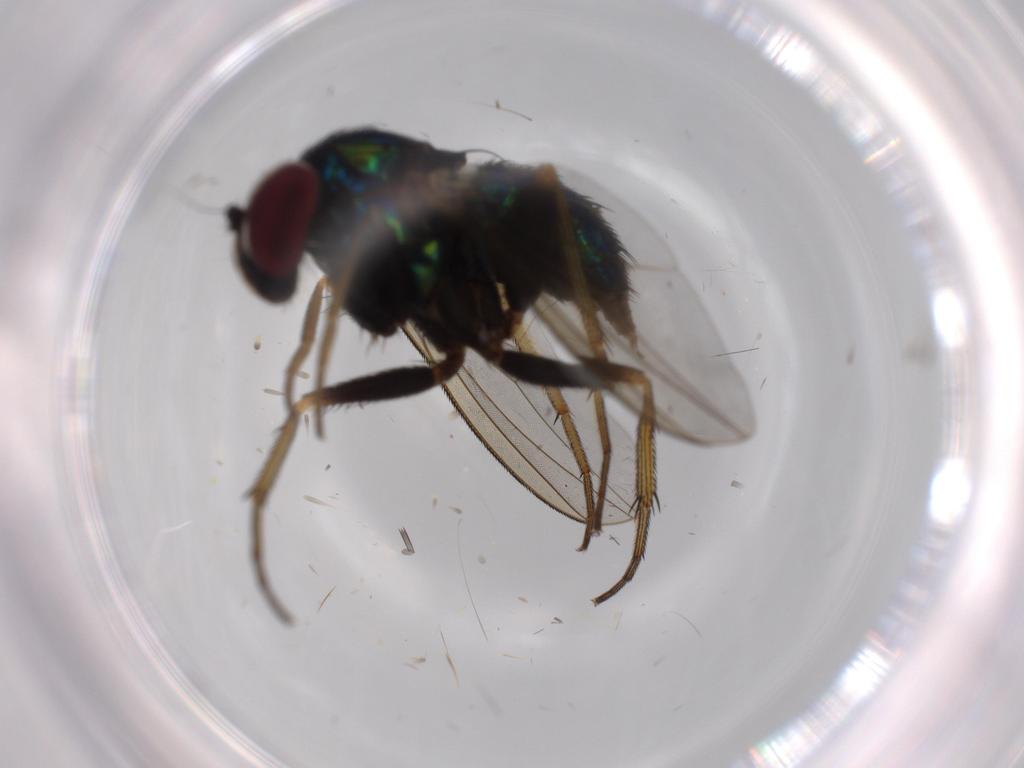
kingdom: Animalia
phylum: Arthropoda
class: Insecta
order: Diptera
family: Dolichopodidae
